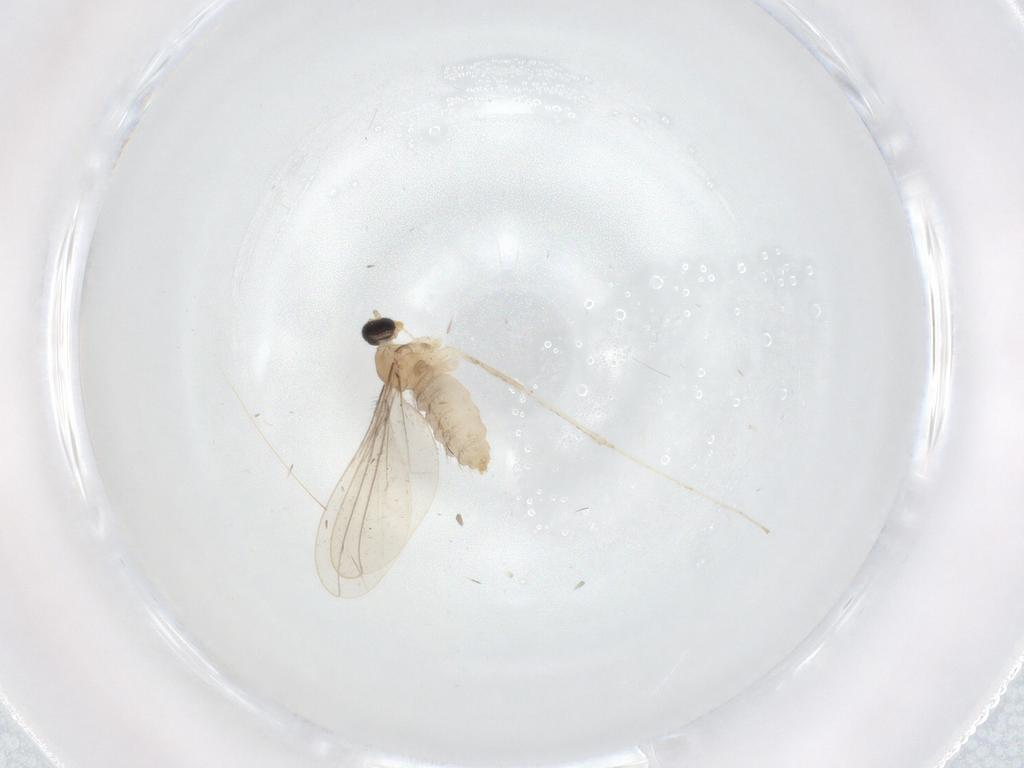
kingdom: Animalia
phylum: Arthropoda
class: Insecta
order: Diptera
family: Cecidomyiidae
